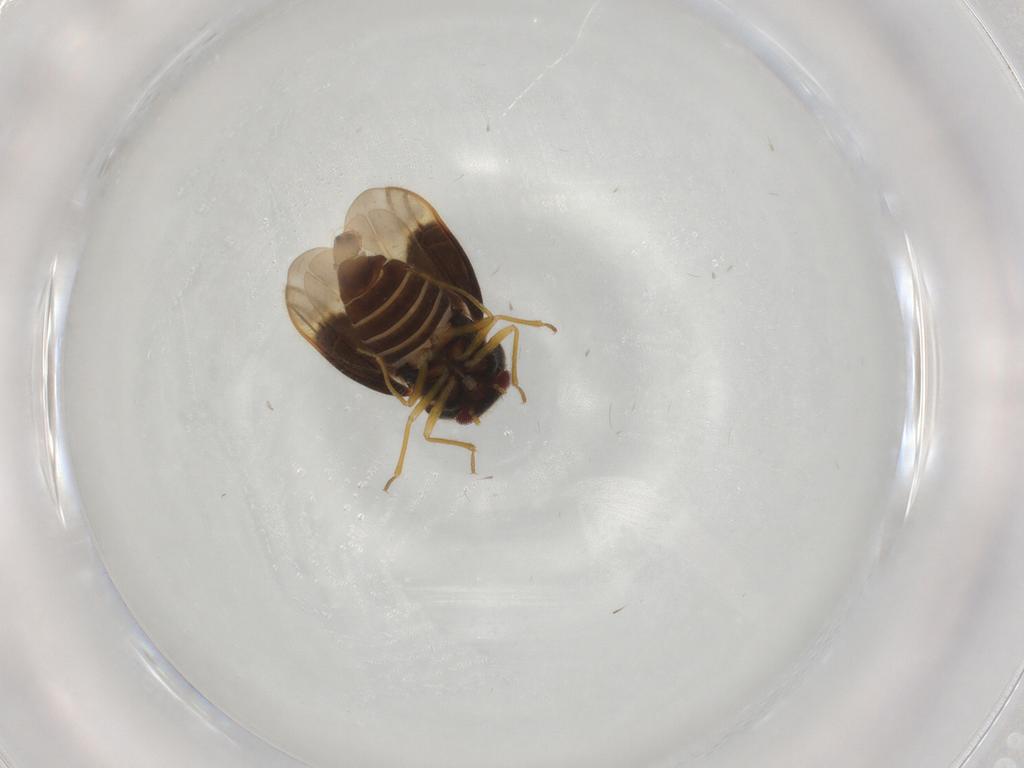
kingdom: Animalia
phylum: Arthropoda
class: Insecta
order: Hemiptera
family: Schizopteridae
